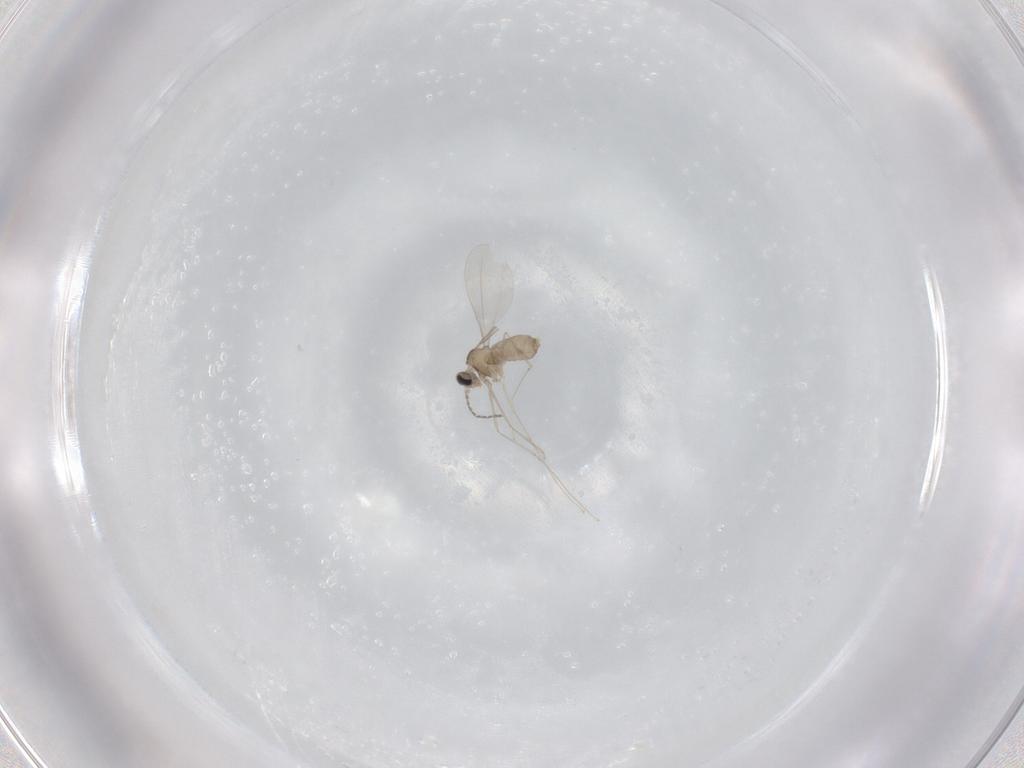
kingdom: Animalia
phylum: Arthropoda
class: Insecta
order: Diptera
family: Cecidomyiidae
